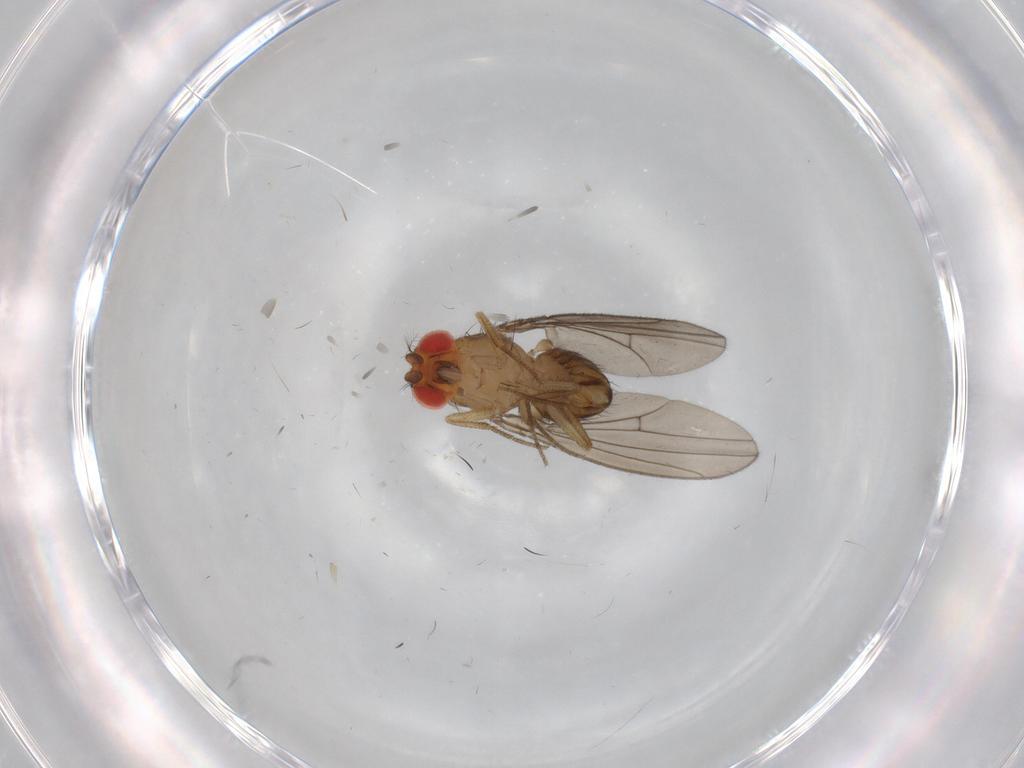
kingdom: Animalia
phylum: Arthropoda
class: Insecta
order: Diptera
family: Drosophilidae
